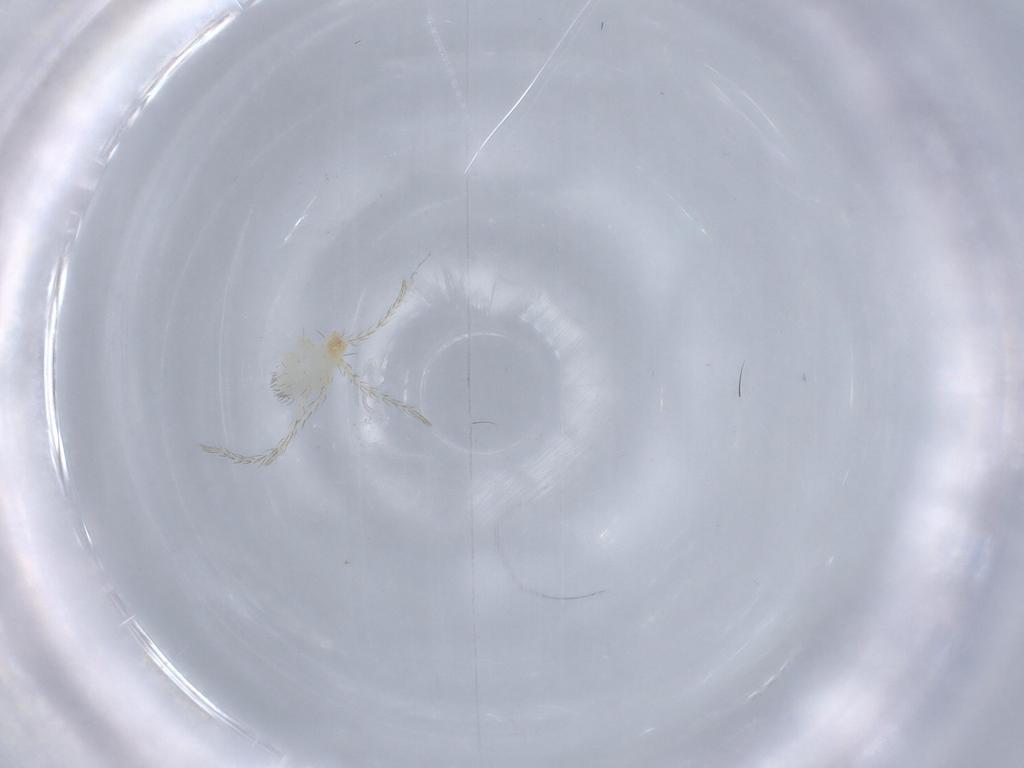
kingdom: Animalia
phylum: Arthropoda
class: Arachnida
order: Trombidiformes
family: Erythraeidae
